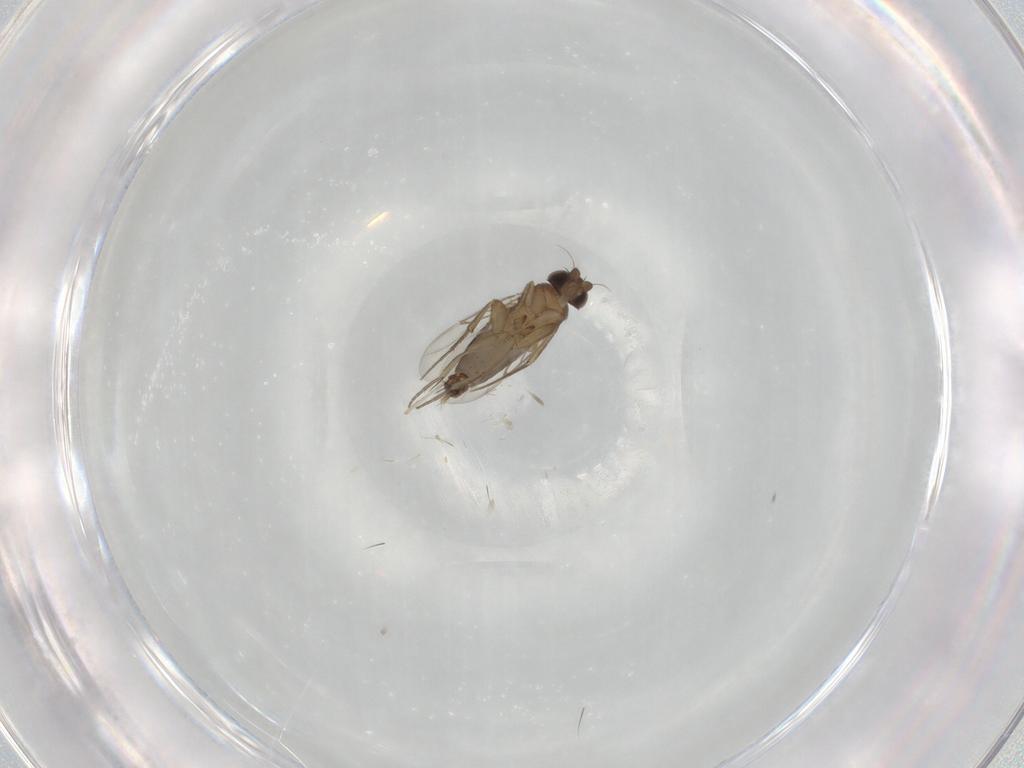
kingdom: Animalia
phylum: Arthropoda
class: Insecta
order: Diptera
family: Phoridae
